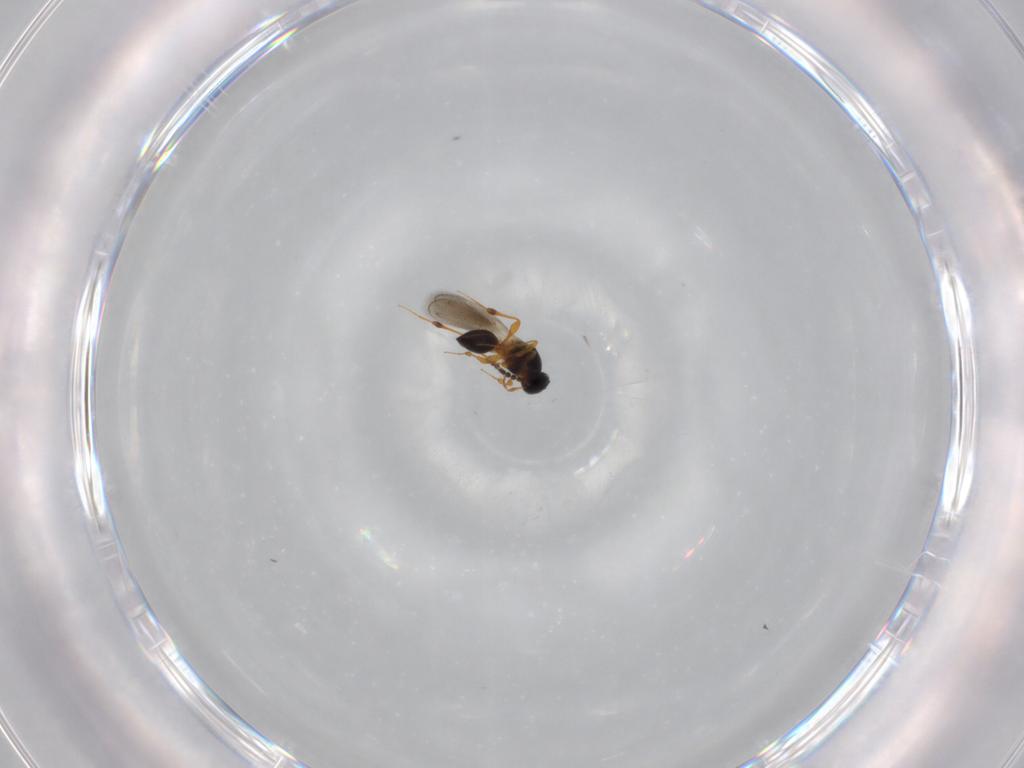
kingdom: Animalia
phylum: Arthropoda
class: Insecta
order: Hymenoptera
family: Platygastridae
